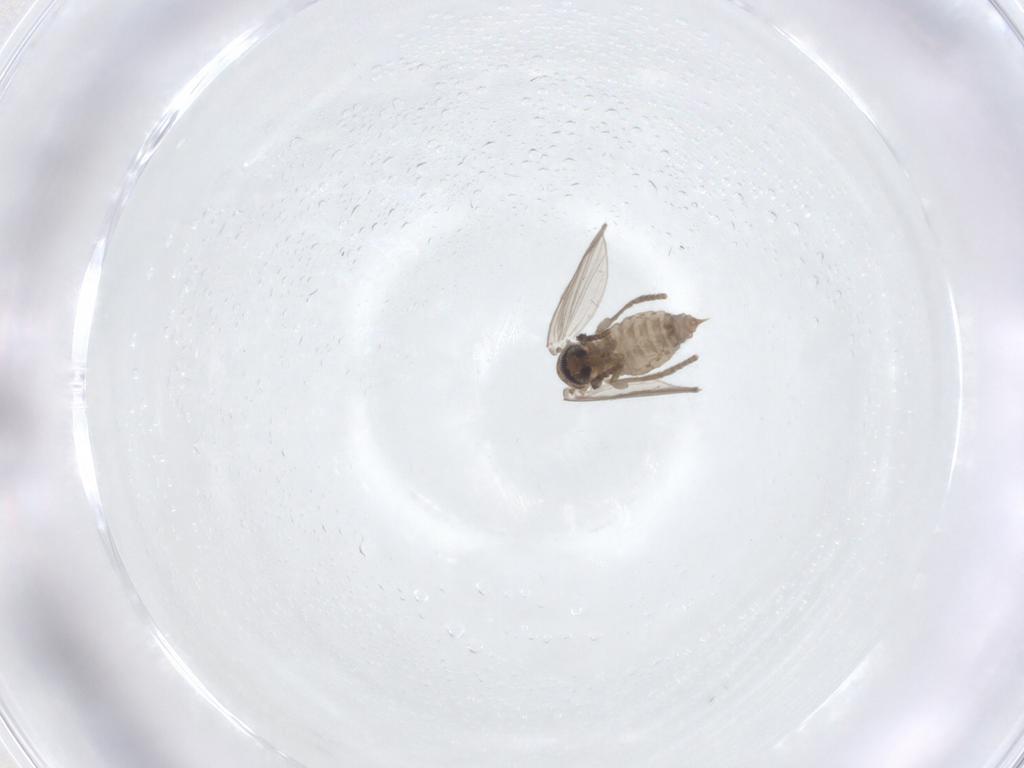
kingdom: Animalia
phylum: Arthropoda
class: Insecta
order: Diptera
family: Psychodidae
